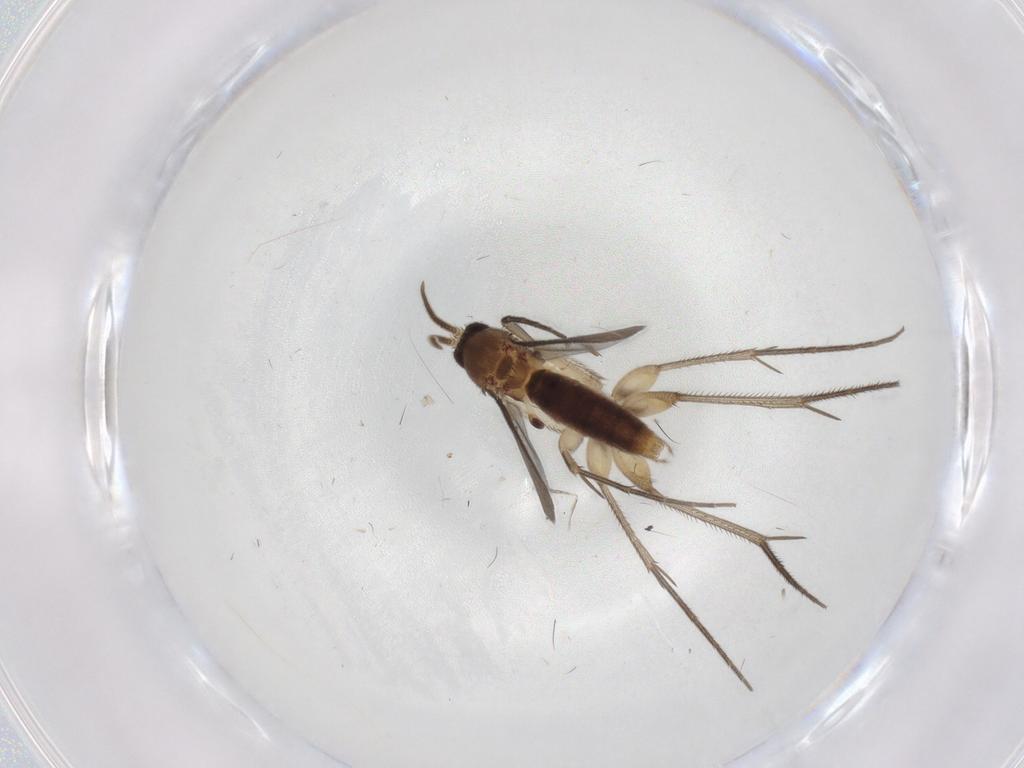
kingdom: Animalia
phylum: Arthropoda
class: Insecta
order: Diptera
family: Mycetophilidae
